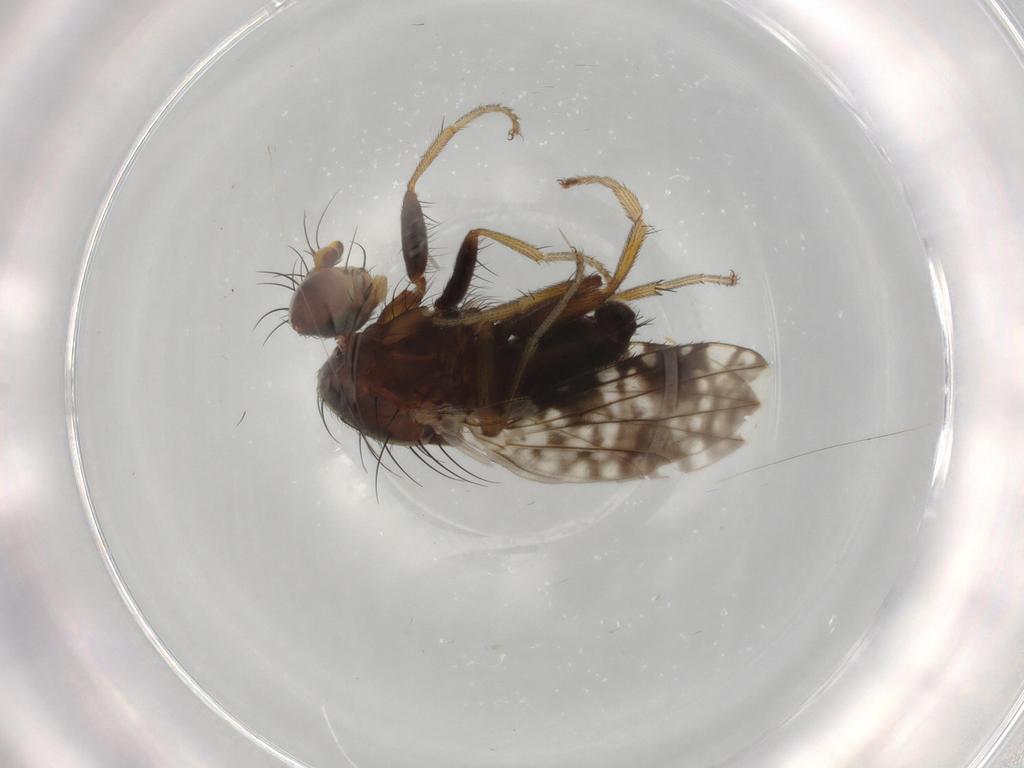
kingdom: Animalia
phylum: Arthropoda
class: Insecta
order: Diptera
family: Tephritidae
